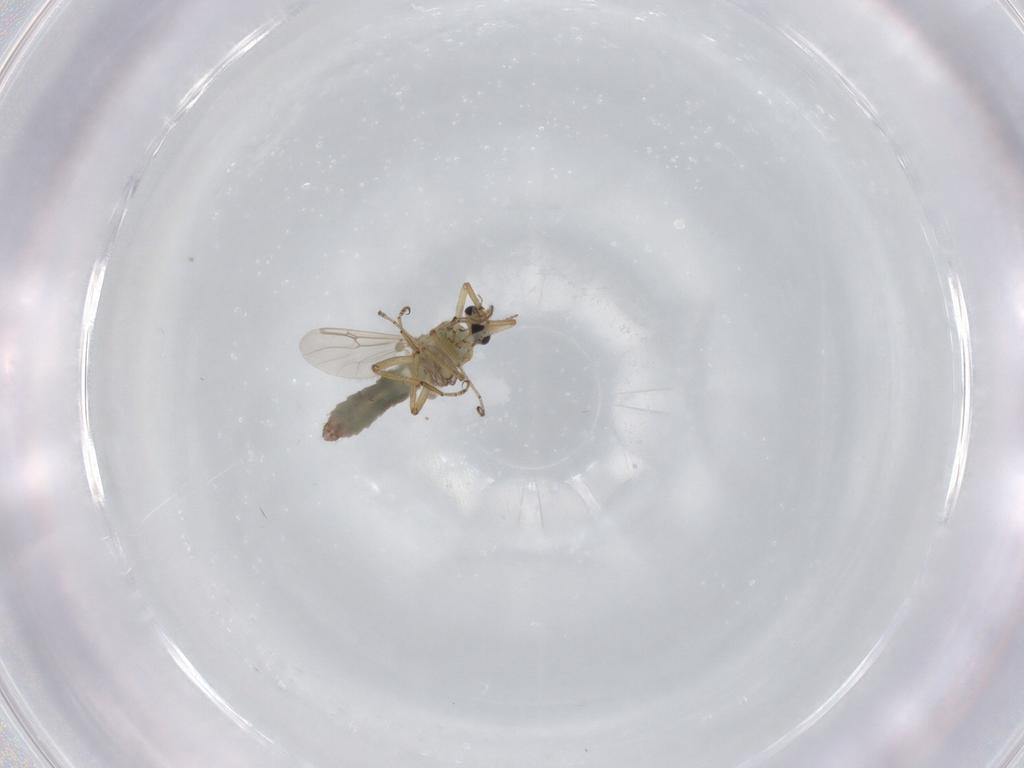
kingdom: Animalia
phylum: Arthropoda
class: Insecta
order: Diptera
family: Ceratopogonidae
